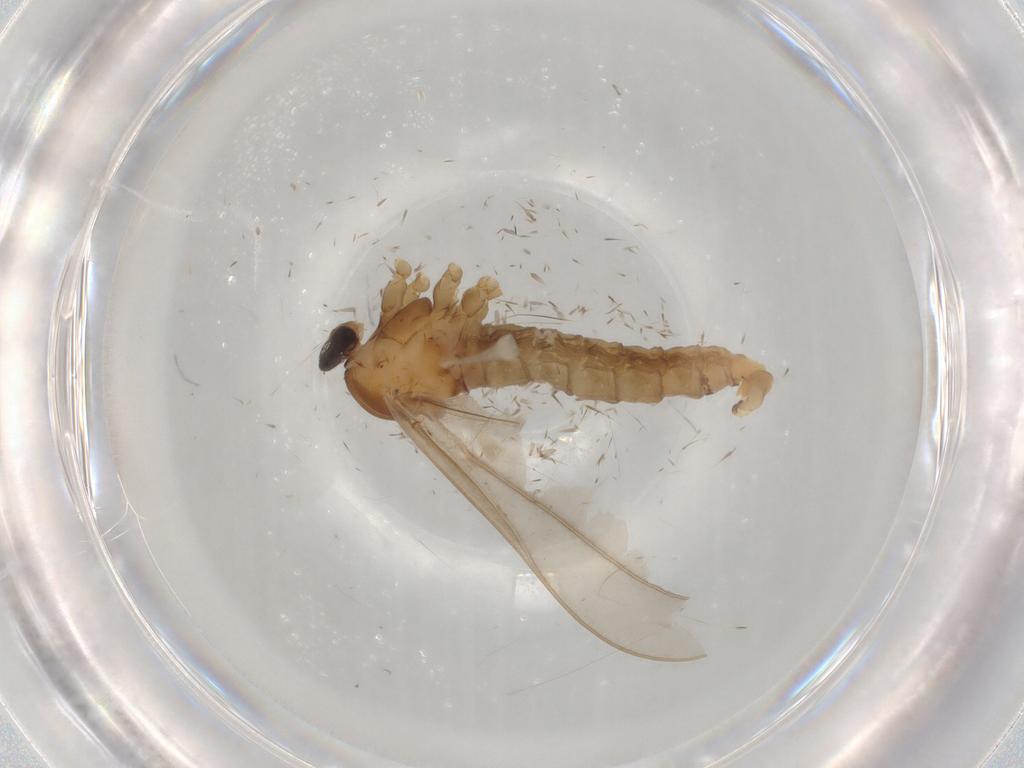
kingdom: Animalia
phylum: Arthropoda
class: Insecta
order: Diptera
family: Cecidomyiidae
